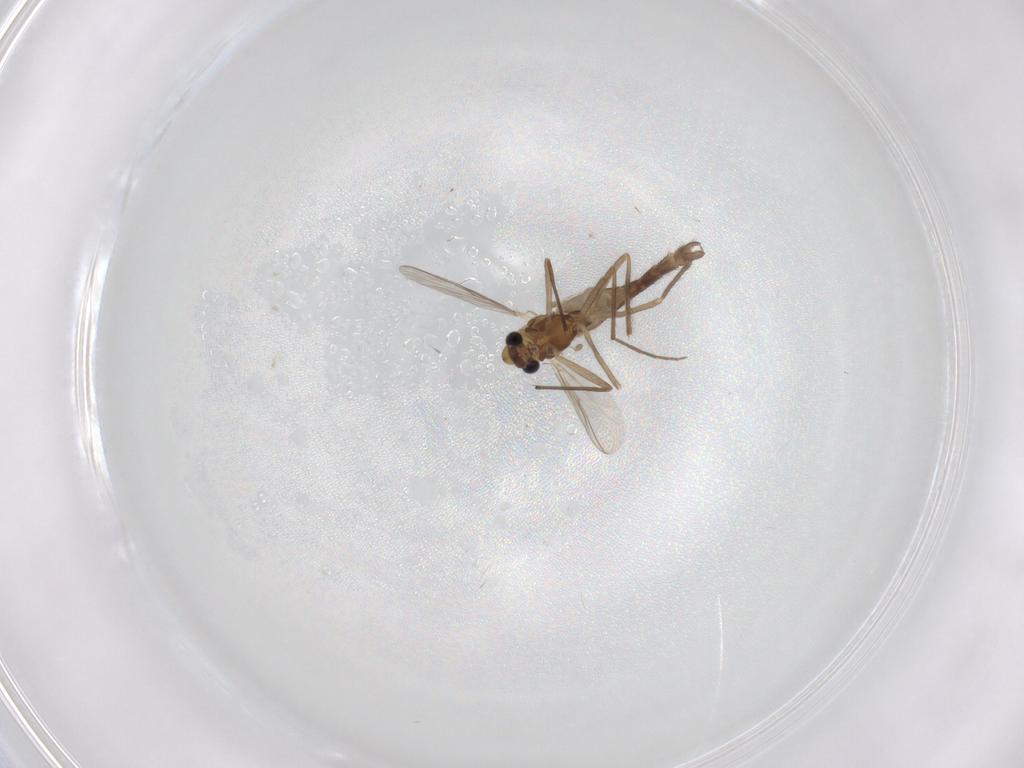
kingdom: Animalia
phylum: Arthropoda
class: Insecta
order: Diptera
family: Chironomidae
